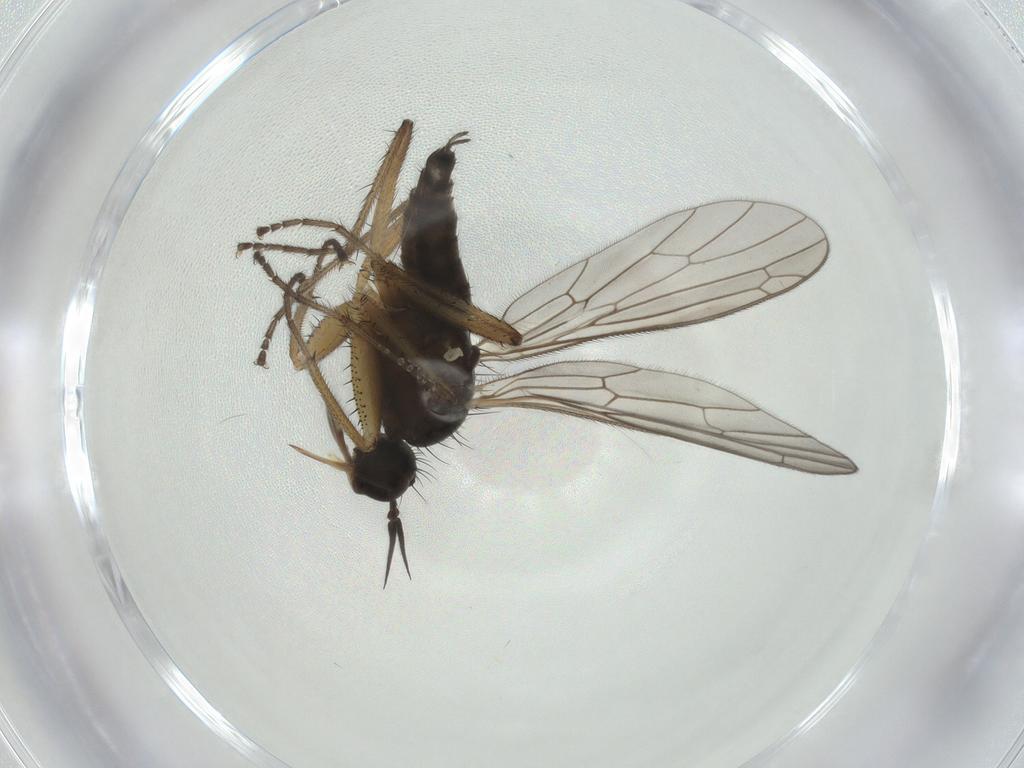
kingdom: Animalia
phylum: Arthropoda
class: Insecta
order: Diptera
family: Empididae
